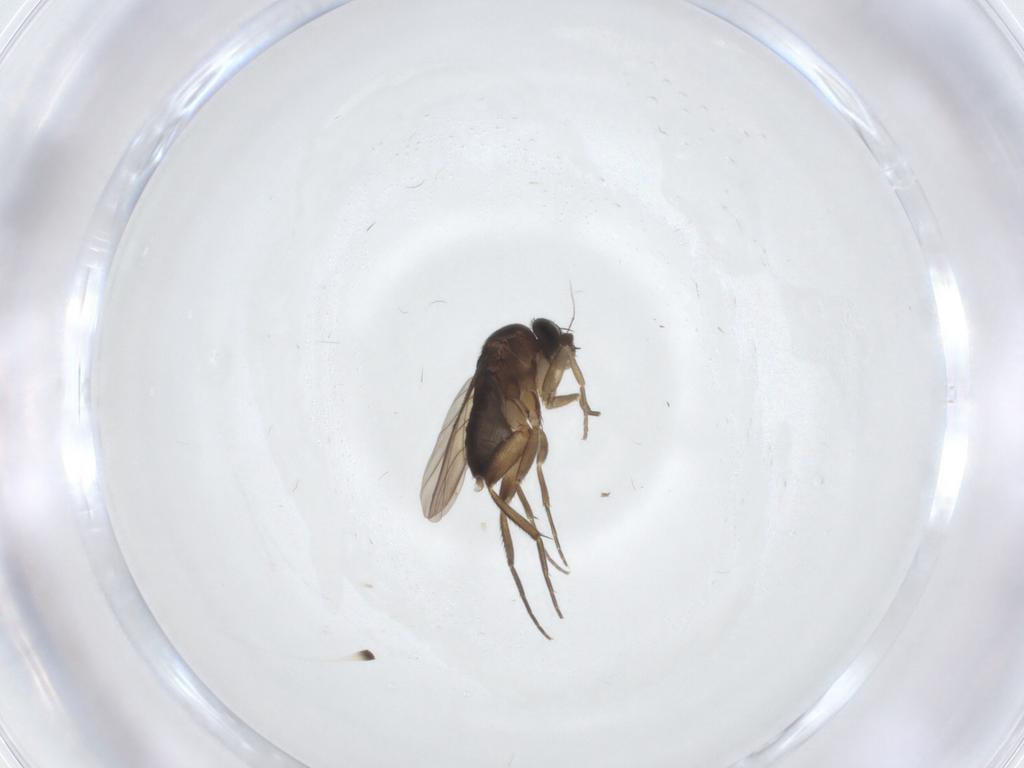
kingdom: Animalia
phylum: Arthropoda
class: Insecta
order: Diptera
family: Phoridae
